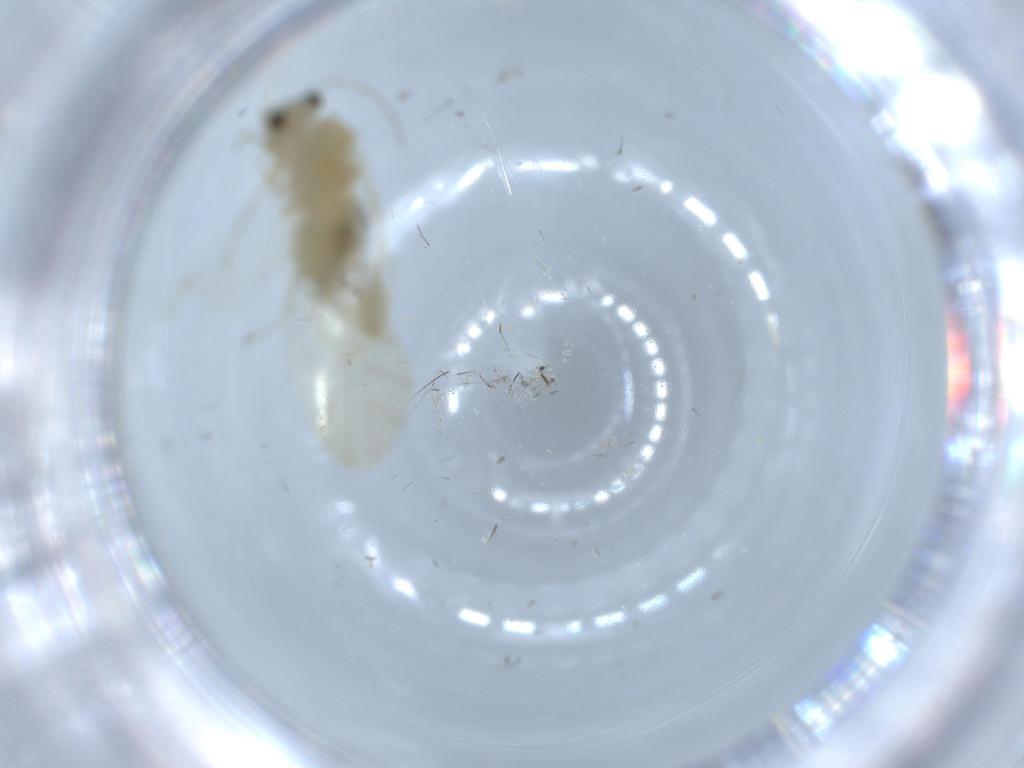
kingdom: Animalia
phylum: Arthropoda
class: Insecta
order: Psocodea
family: Caeciliusidae
